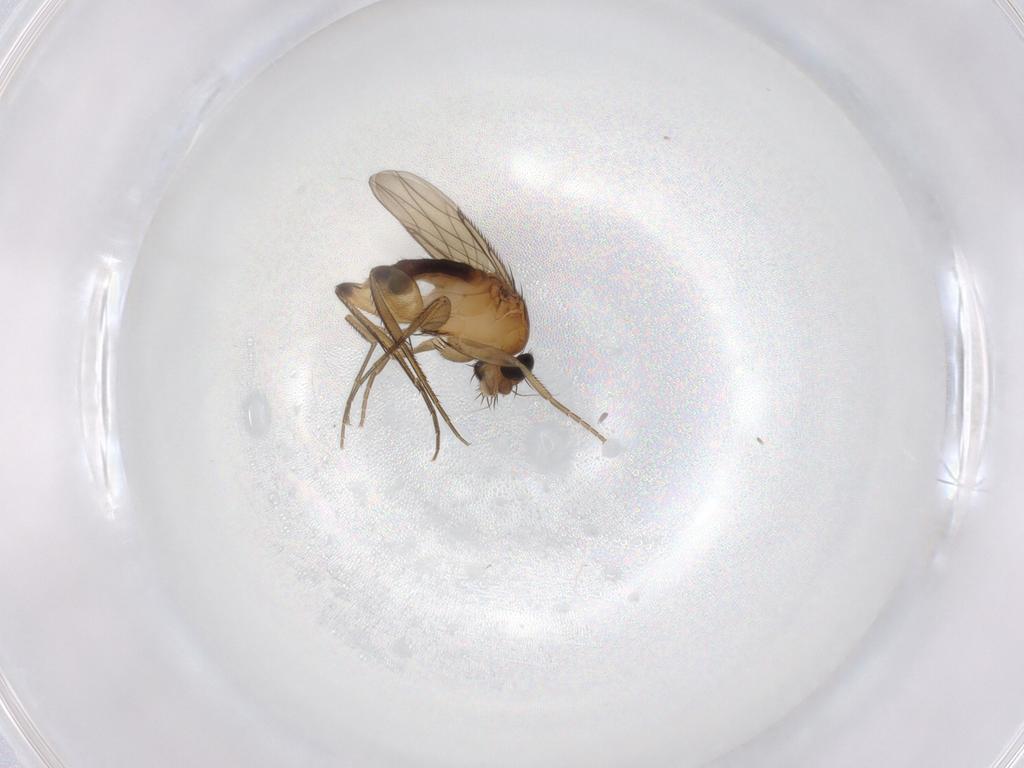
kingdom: Animalia
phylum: Arthropoda
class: Insecta
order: Diptera
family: Phoridae
